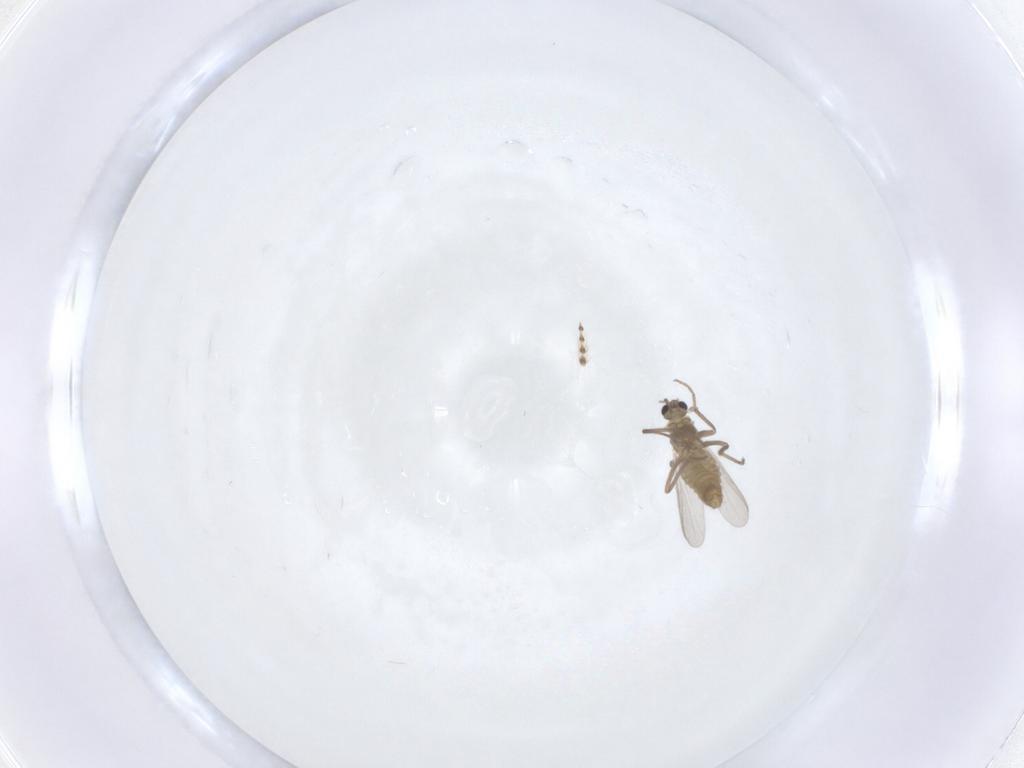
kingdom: Animalia
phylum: Arthropoda
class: Insecta
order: Diptera
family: Chironomidae
